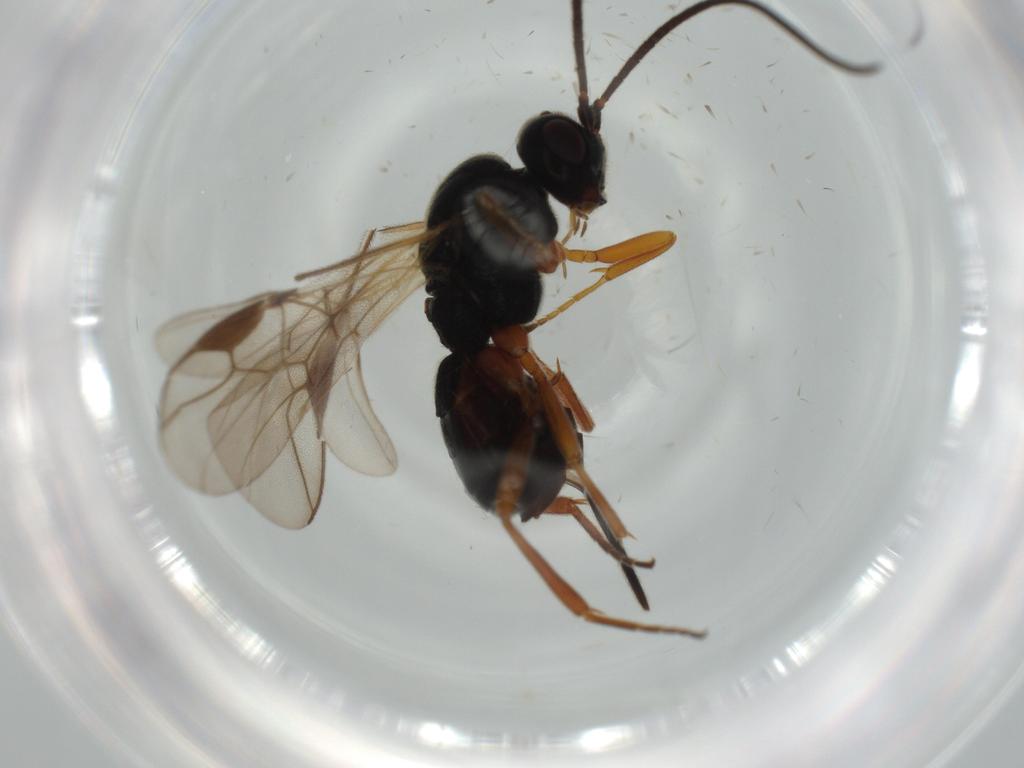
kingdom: Animalia
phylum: Arthropoda
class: Insecta
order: Hymenoptera
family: Braconidae
